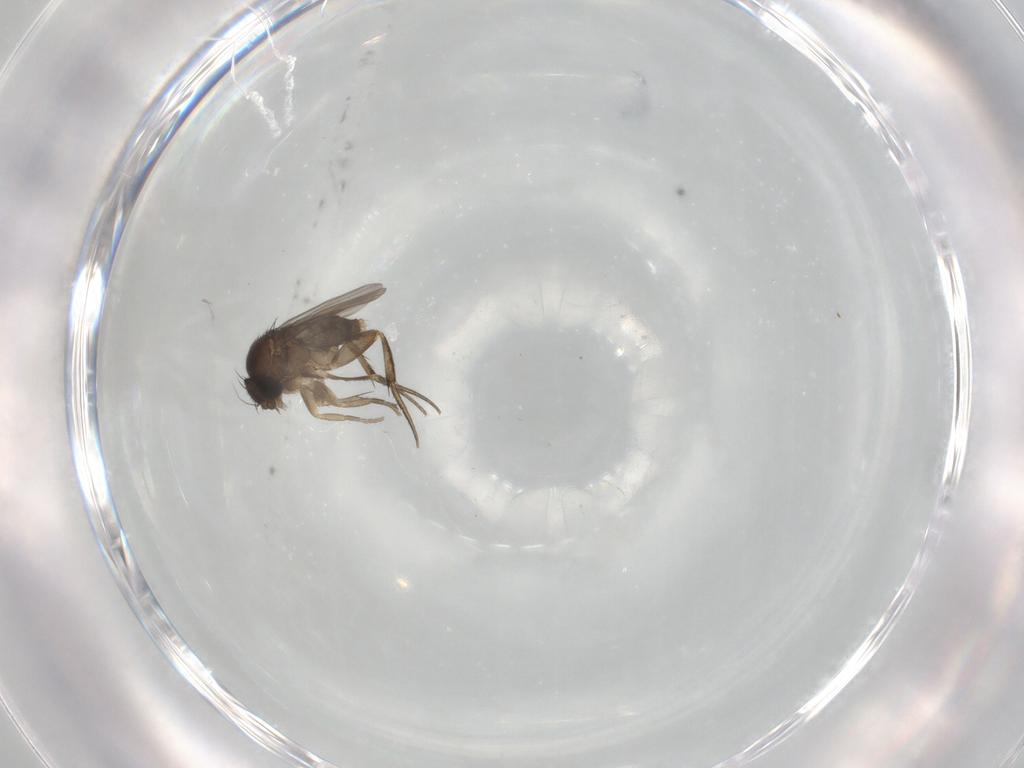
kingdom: Animalia
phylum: Arthropoda
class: Insecta
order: Diptera
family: Phoridae
